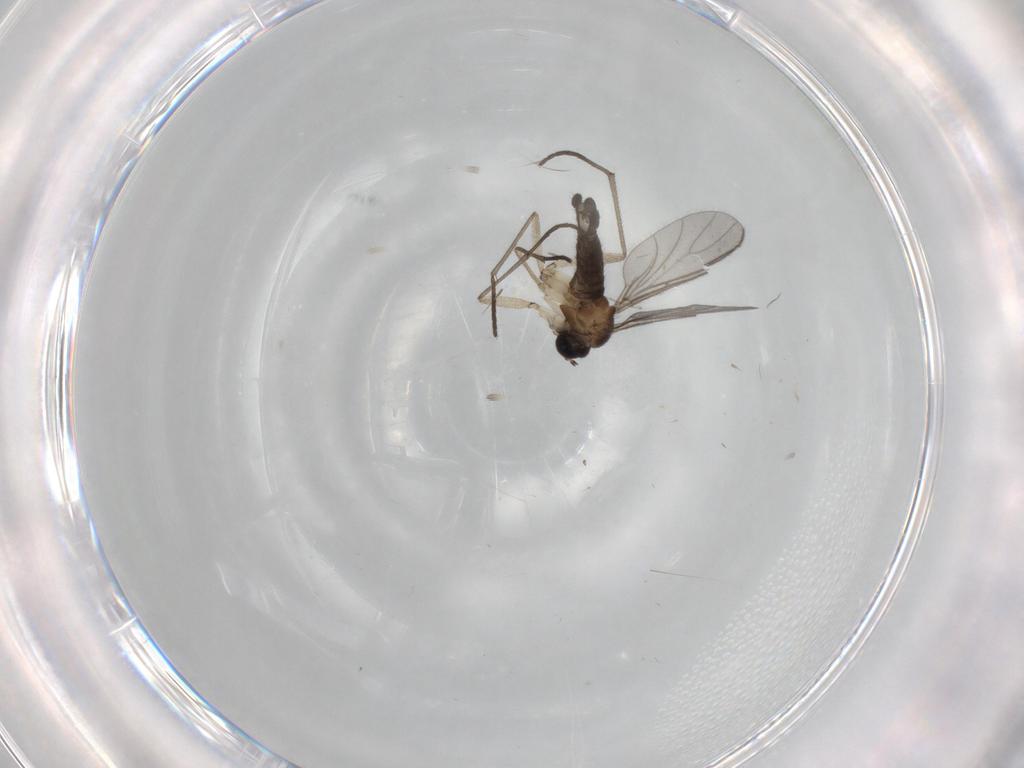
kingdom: Animalia
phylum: Arthropoda
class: Insecta
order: Diptera
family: Sciaridae
